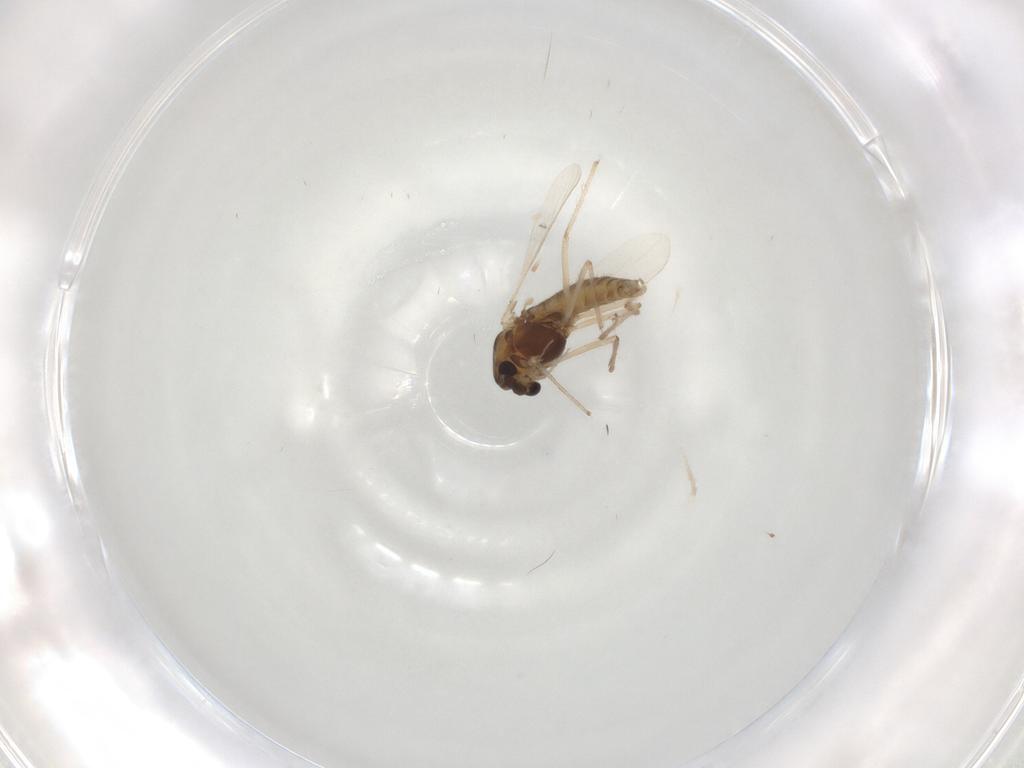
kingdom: Animalia
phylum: Arthropoda
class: Insecta
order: Diptera
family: Chironomidae
